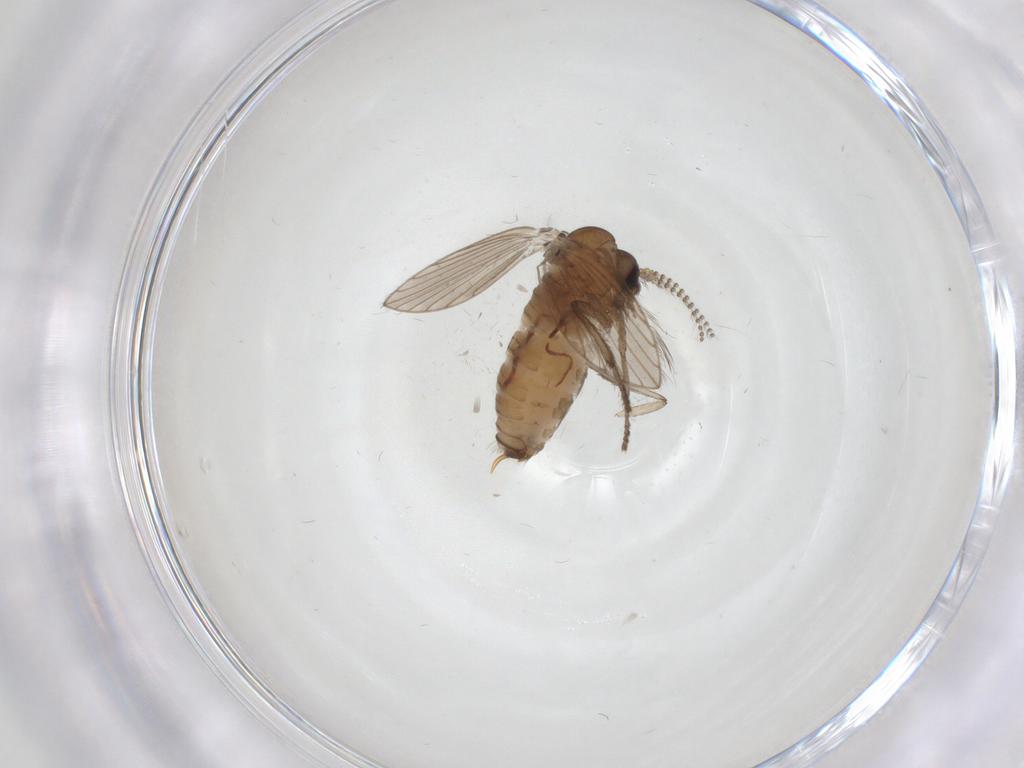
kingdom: Animalia
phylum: Arthropoda
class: Insecta
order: Diptera
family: Psychodidae
